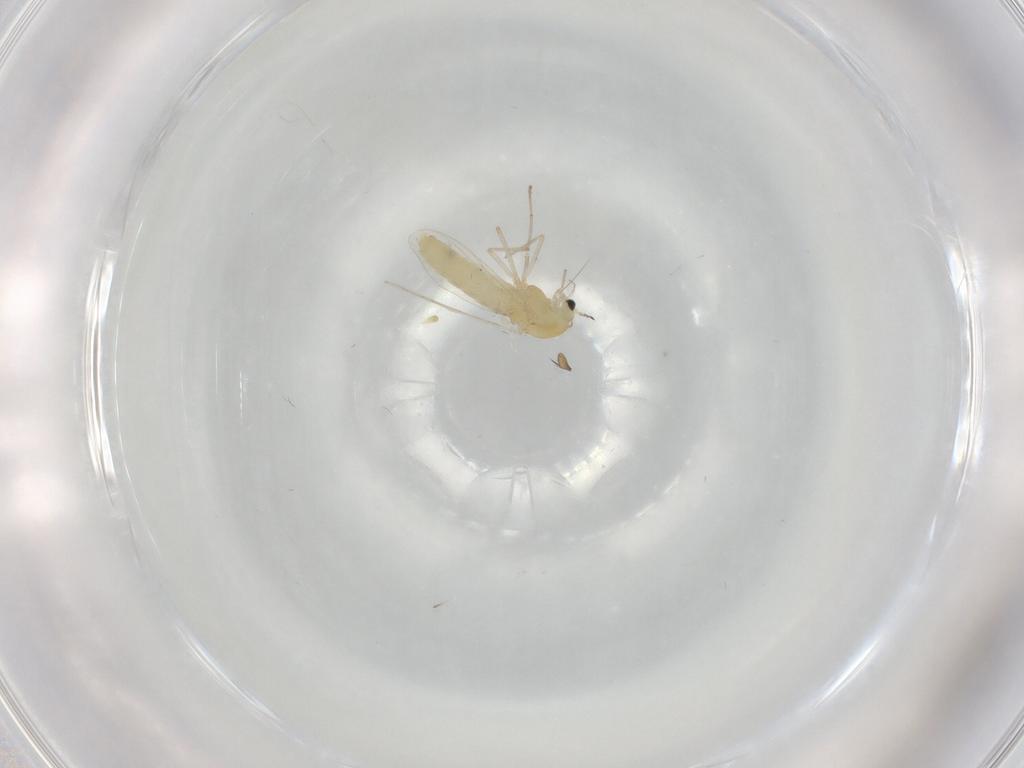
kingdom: Animalia
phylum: Arthropoda
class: Insecta
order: Diptera
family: Chironomidae
